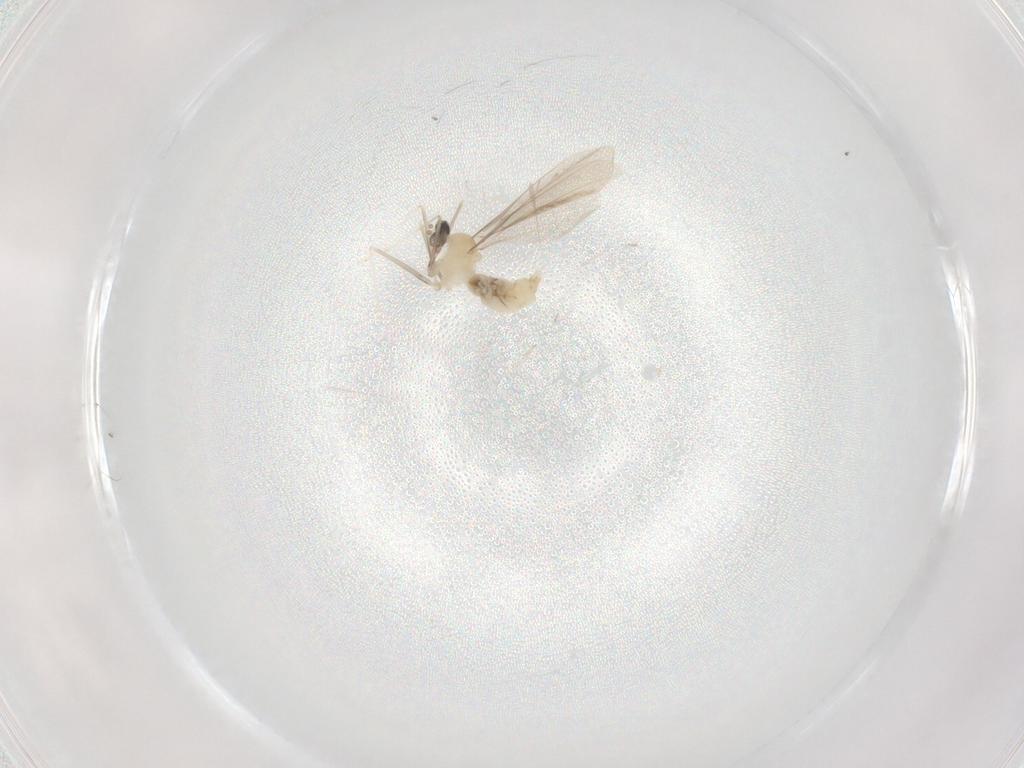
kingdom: Animalia
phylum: Arthropoda
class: Insecta
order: Diptera
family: Cecidomyiidae
